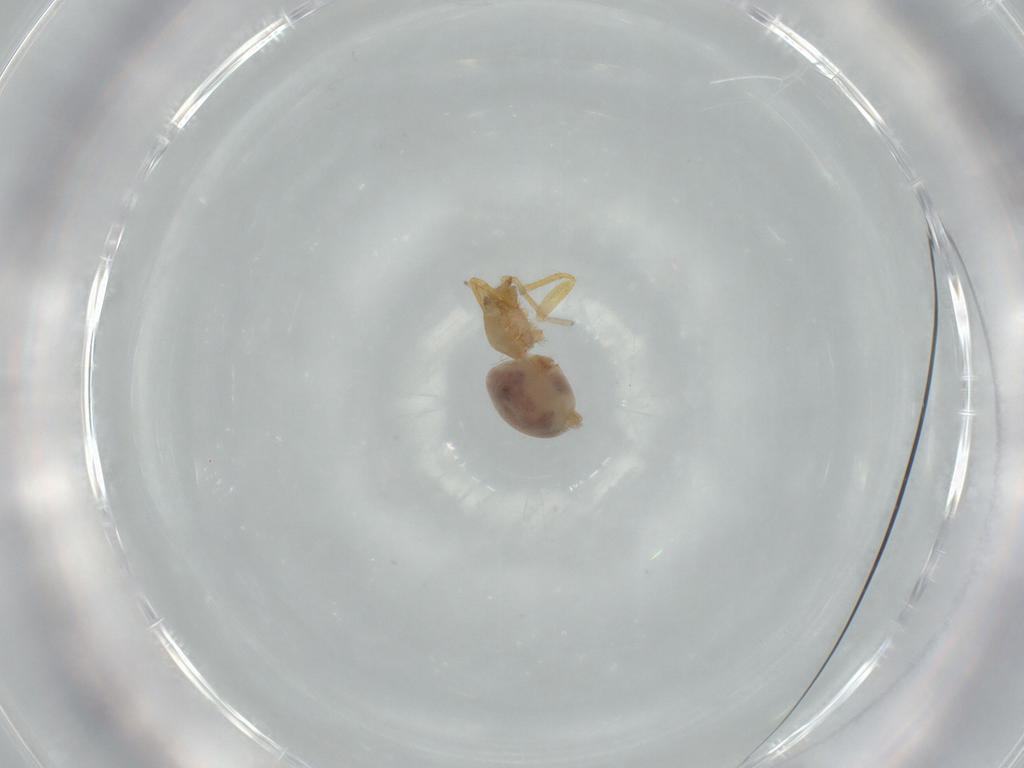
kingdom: Animalia
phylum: Arthropoda
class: Arachnida
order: Araneae
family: Oonopidae
